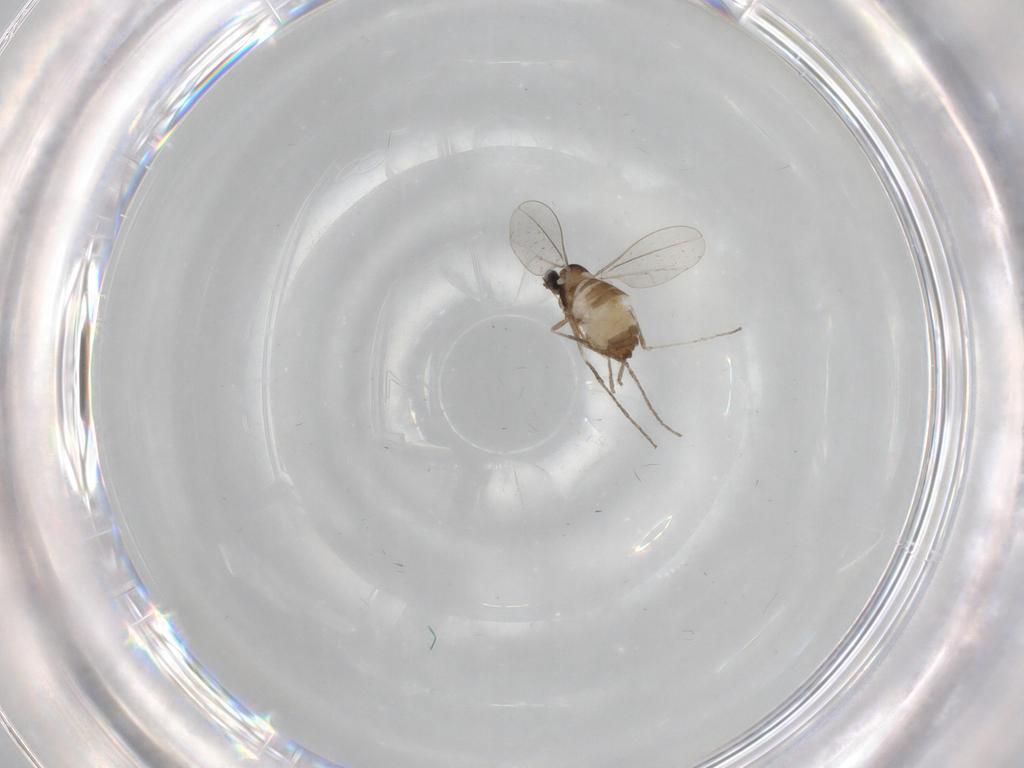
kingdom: Animalia
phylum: Arthropoda
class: Insecta
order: Diptera
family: Cecidomyiidae
